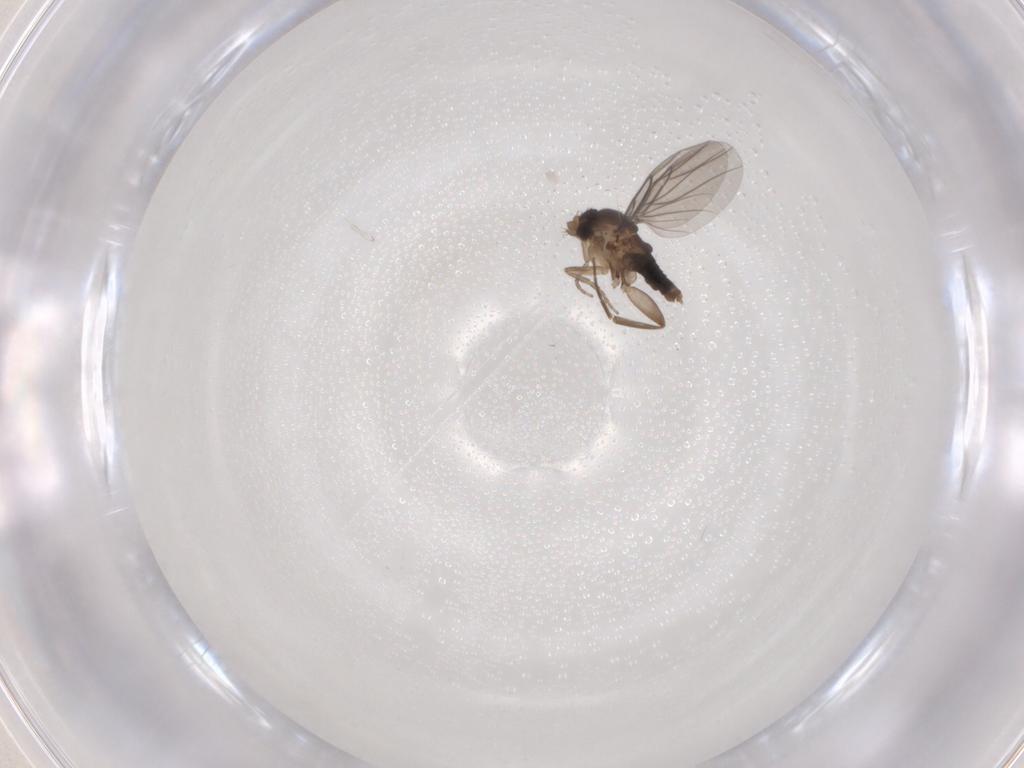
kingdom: Animalia
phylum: Arthropoda
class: Insecta
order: Diptera
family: Phoridae
